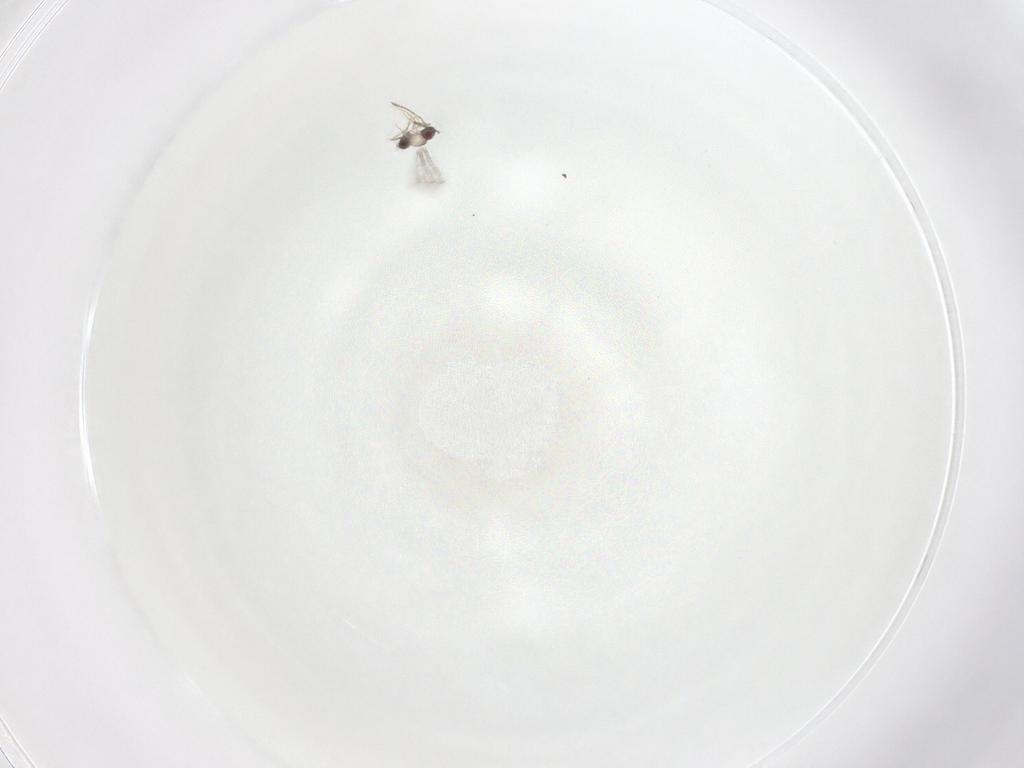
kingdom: Animalia
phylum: Arthropoda
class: Insecta
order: Hymenoptera
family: Mymaridae
